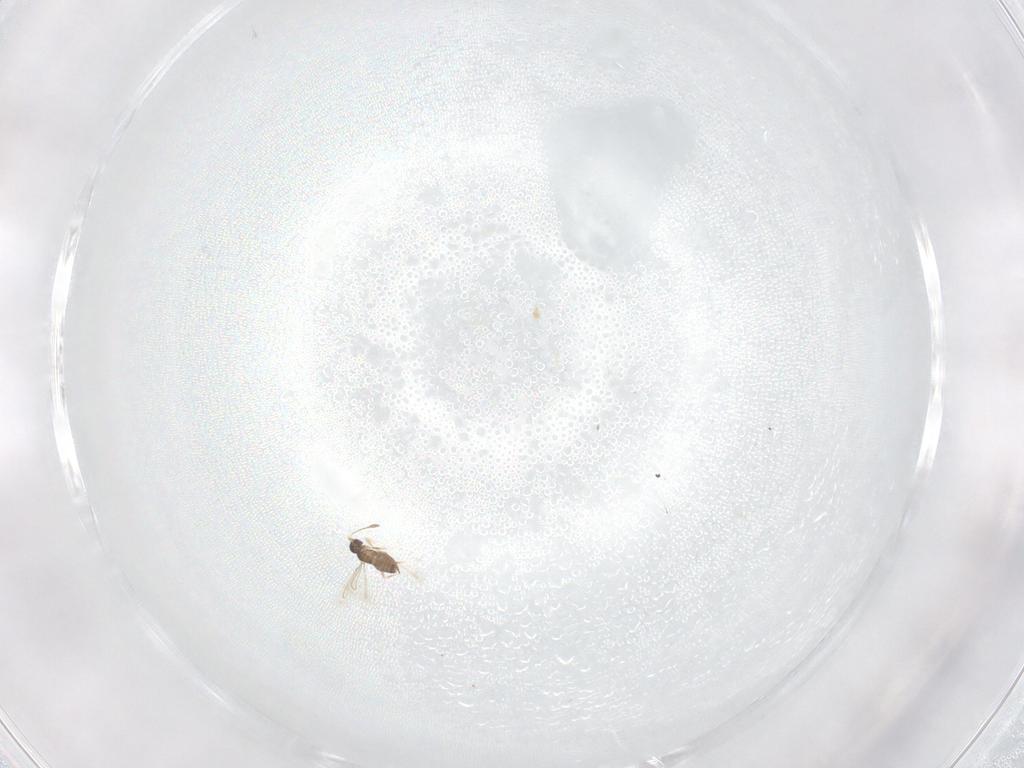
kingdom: Animalia
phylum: Arthropoda
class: Insecta
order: Hymenoptera
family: Eulophidae
